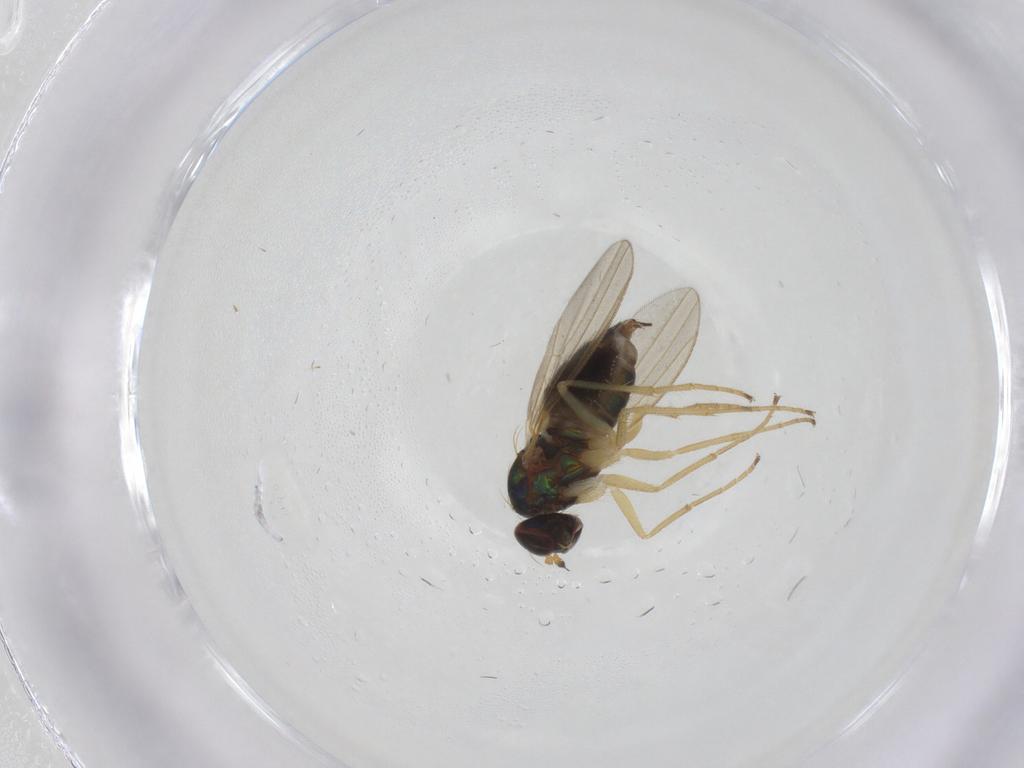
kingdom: Animalia
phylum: Arthropoda
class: Insecta
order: Diptera
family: Dolichopodidae
